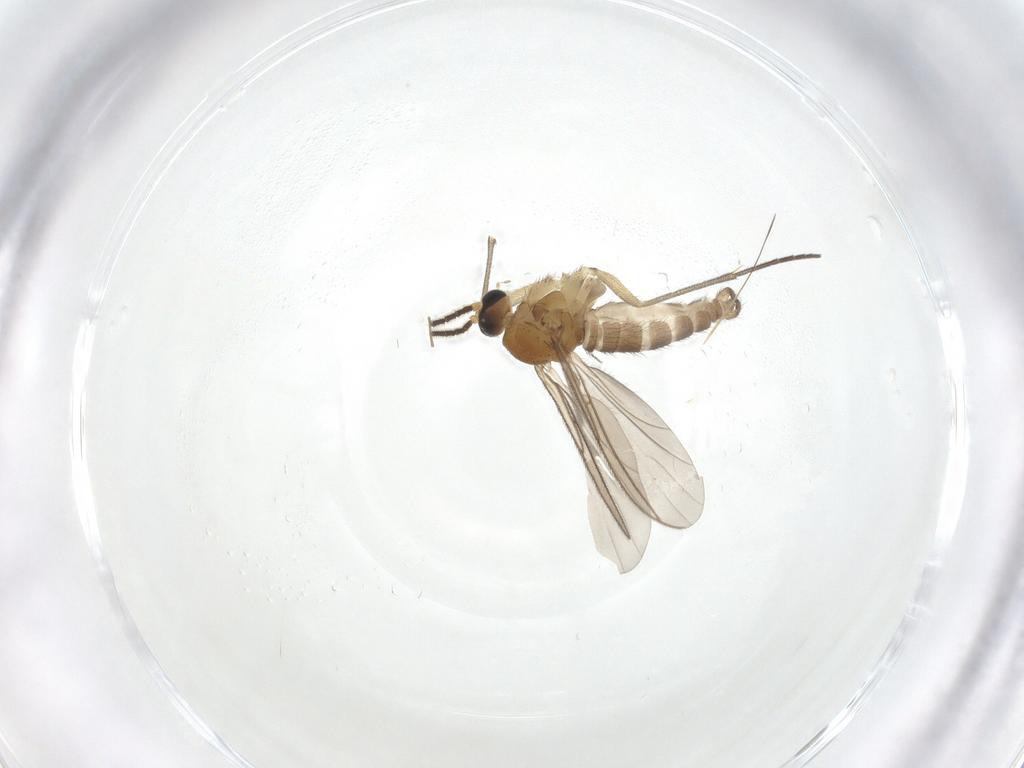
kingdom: Animalia
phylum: Arthropoda
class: Insecta
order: Diptera
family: Sciaridae
